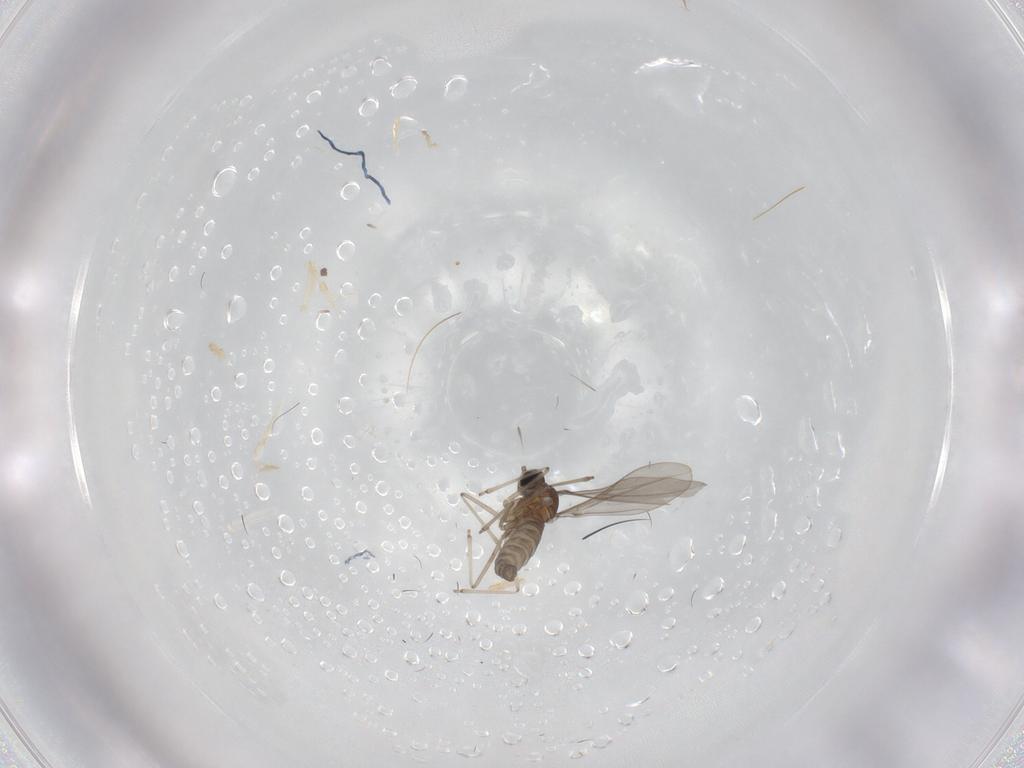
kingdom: Animalia
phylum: Arthropoda
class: Insecta
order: Diptera
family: Cecidomyiidae
